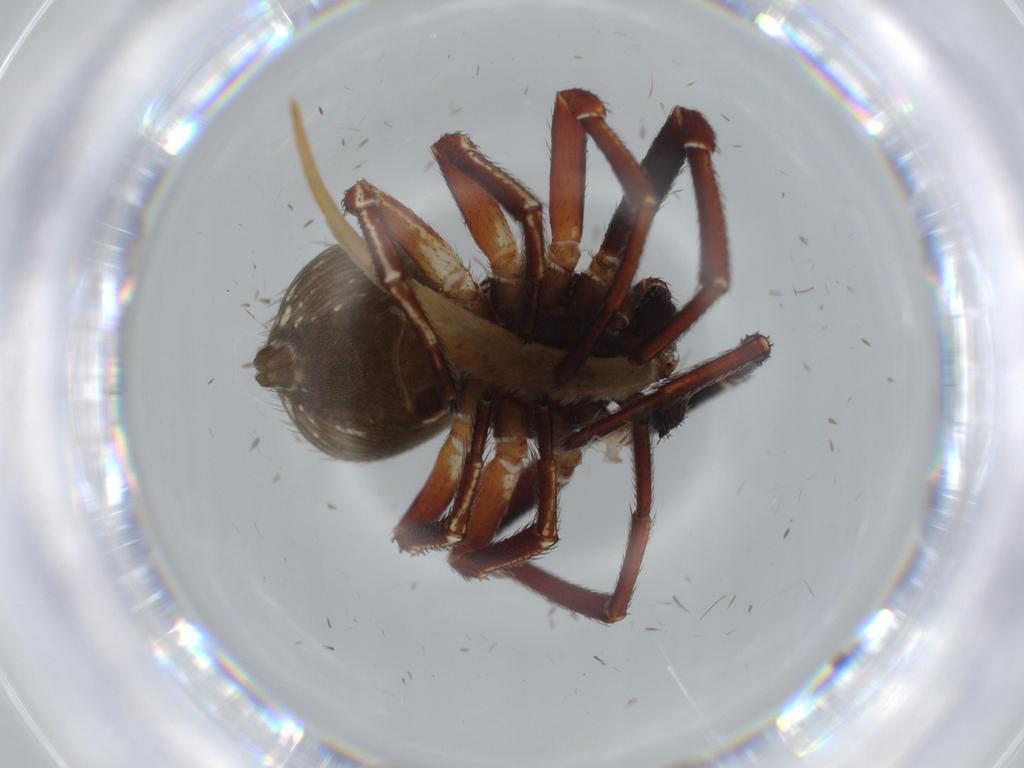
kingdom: Animalia
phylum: Arthropoda
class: Arachnida
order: Araneae
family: Thomisidae
